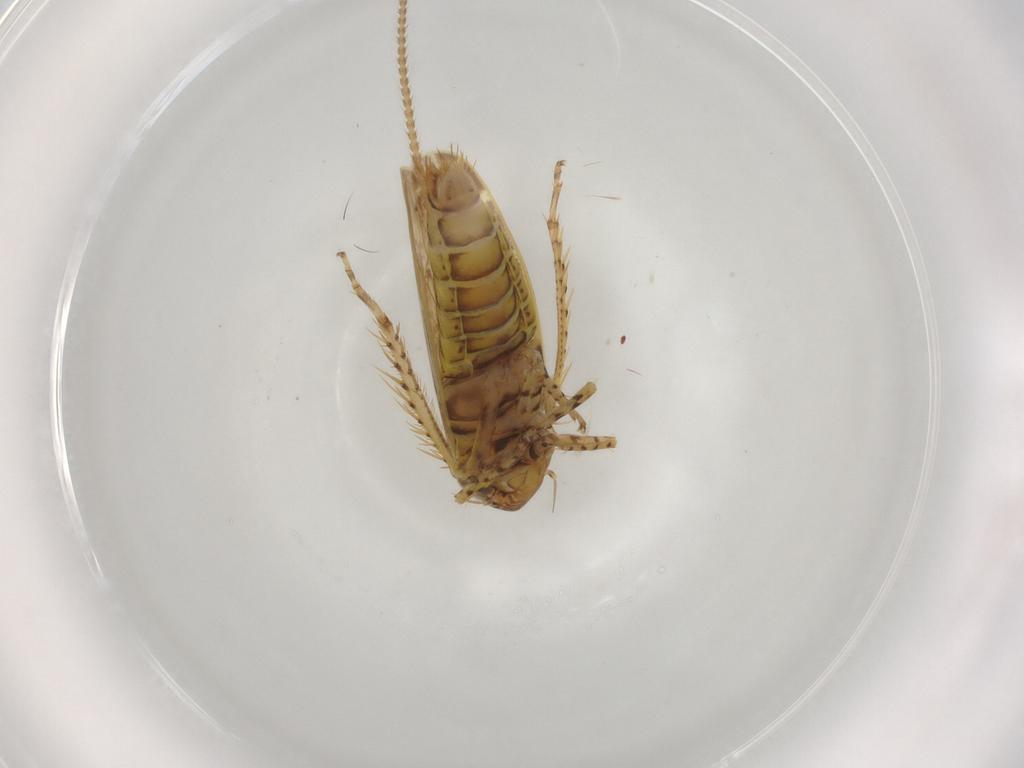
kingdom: Animalia
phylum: Arthropoda
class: Insecta
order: Hemiptera
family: Cicadellidae
